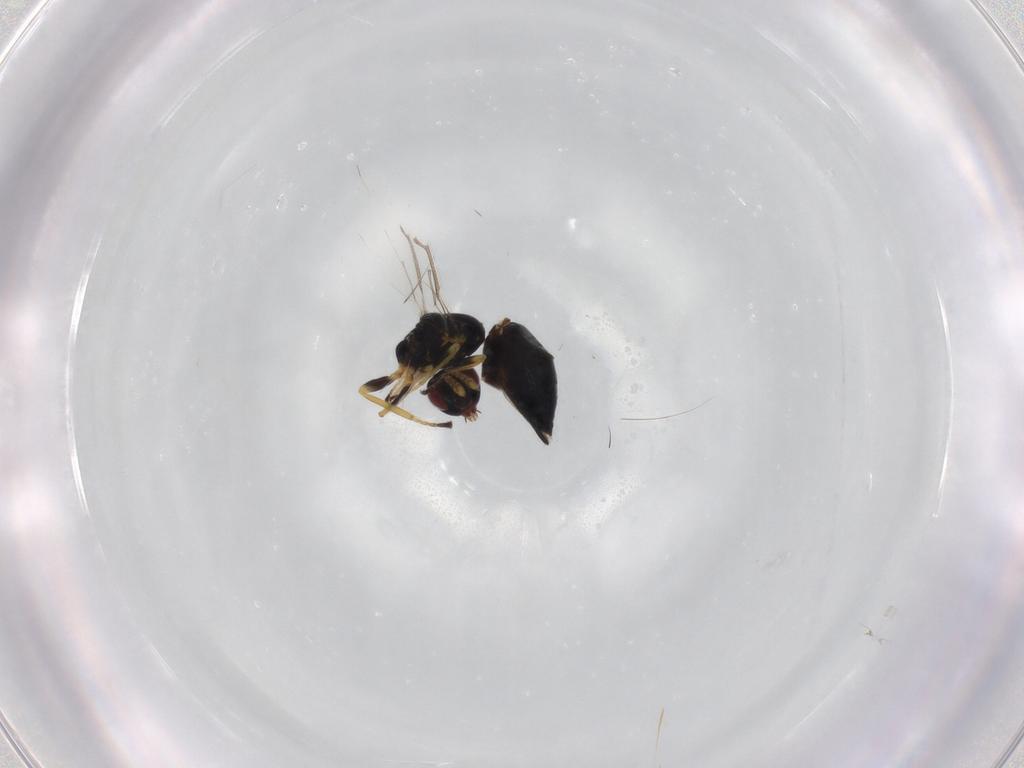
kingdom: Animalia
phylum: Arthropoda
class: Insecta
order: Hymenoptera
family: Eulophidae
